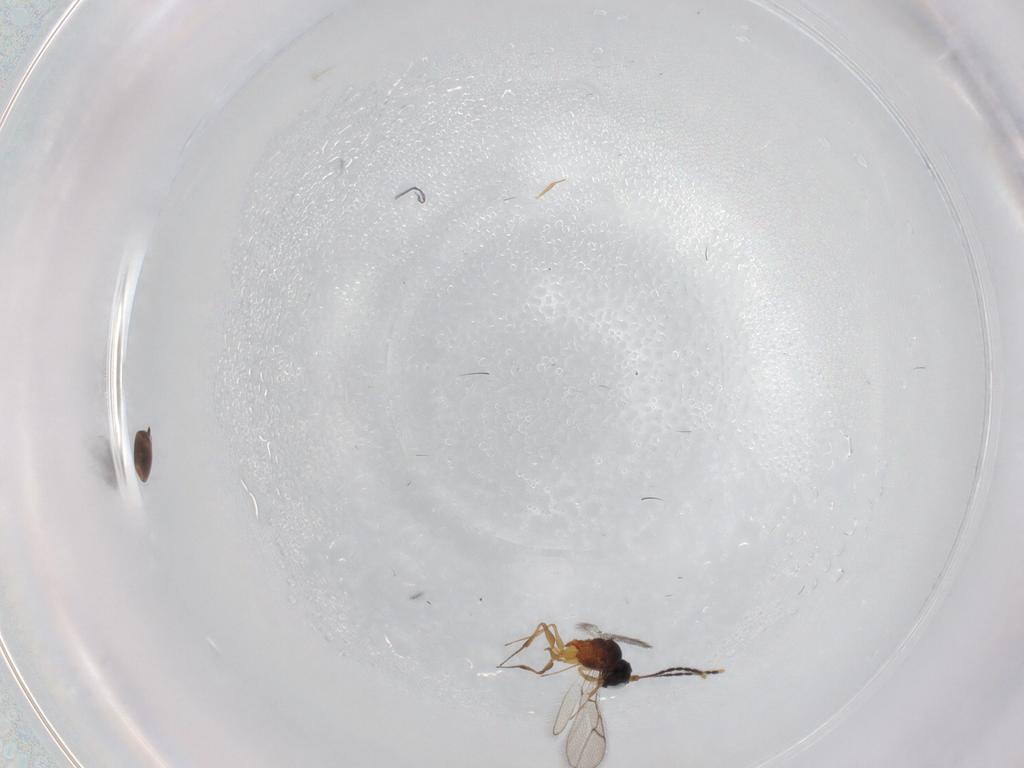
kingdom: Animalia
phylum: Arthropoda
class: Insecta
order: Hymenoptera
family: Figitidae
